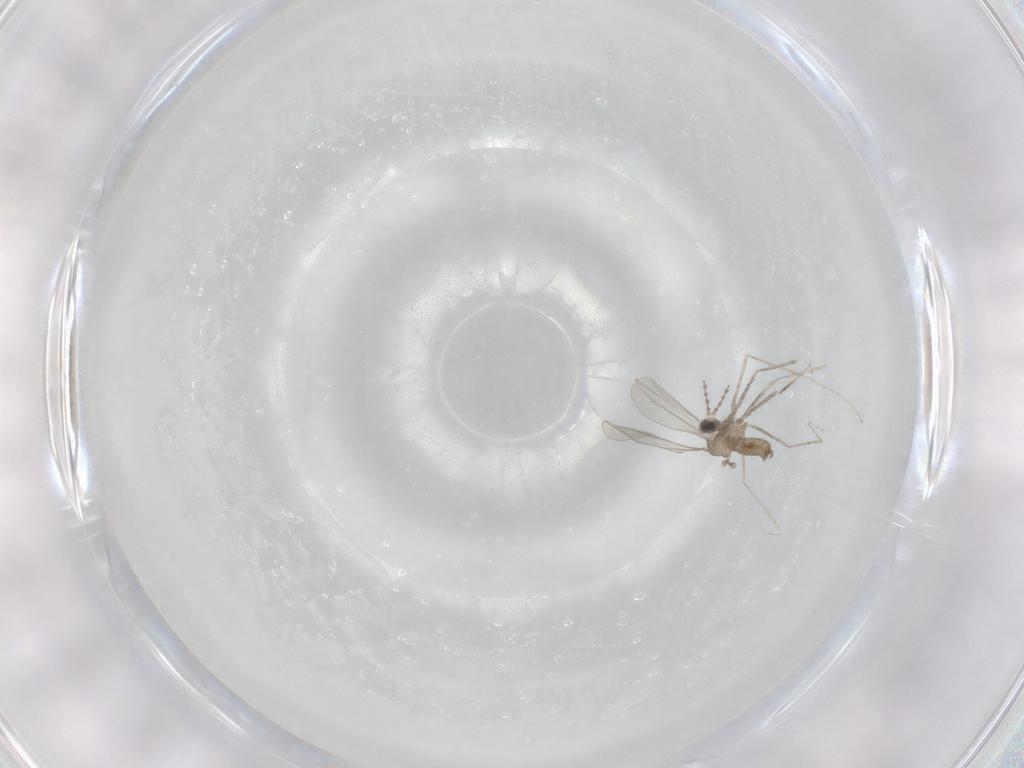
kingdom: Animalia
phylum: Arthropoda
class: Insecta
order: Diptera
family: Cecidomyiidae
